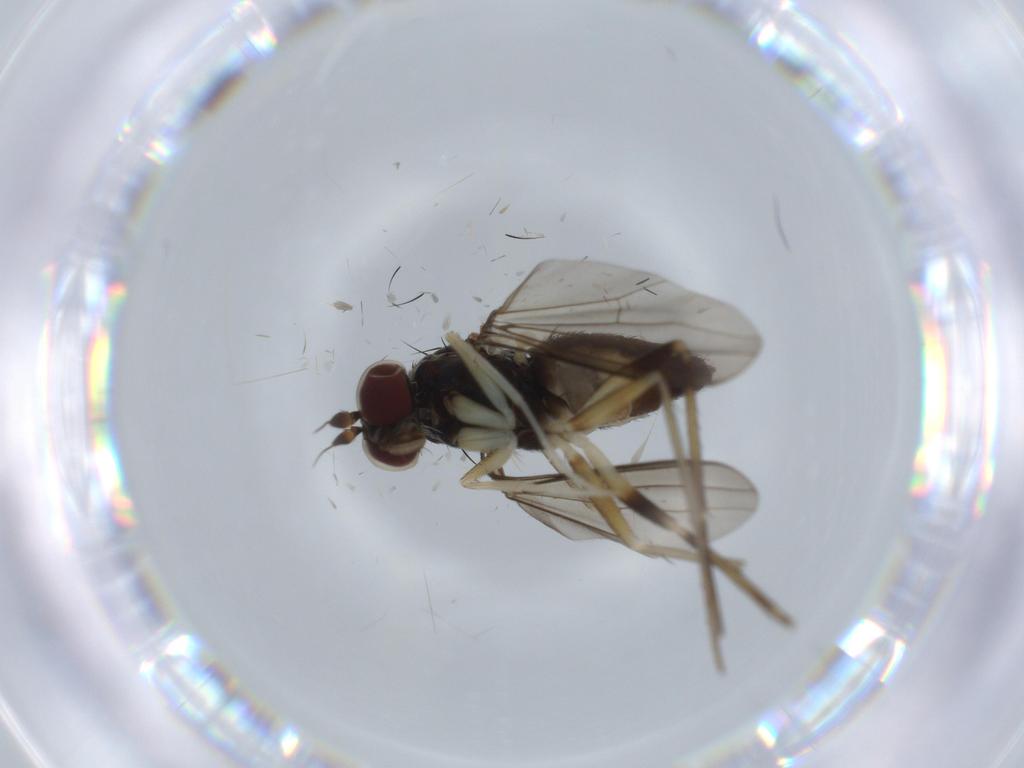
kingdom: Animalia
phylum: Arthropoda
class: Insecta
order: Diptera
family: Dolichopodidae
